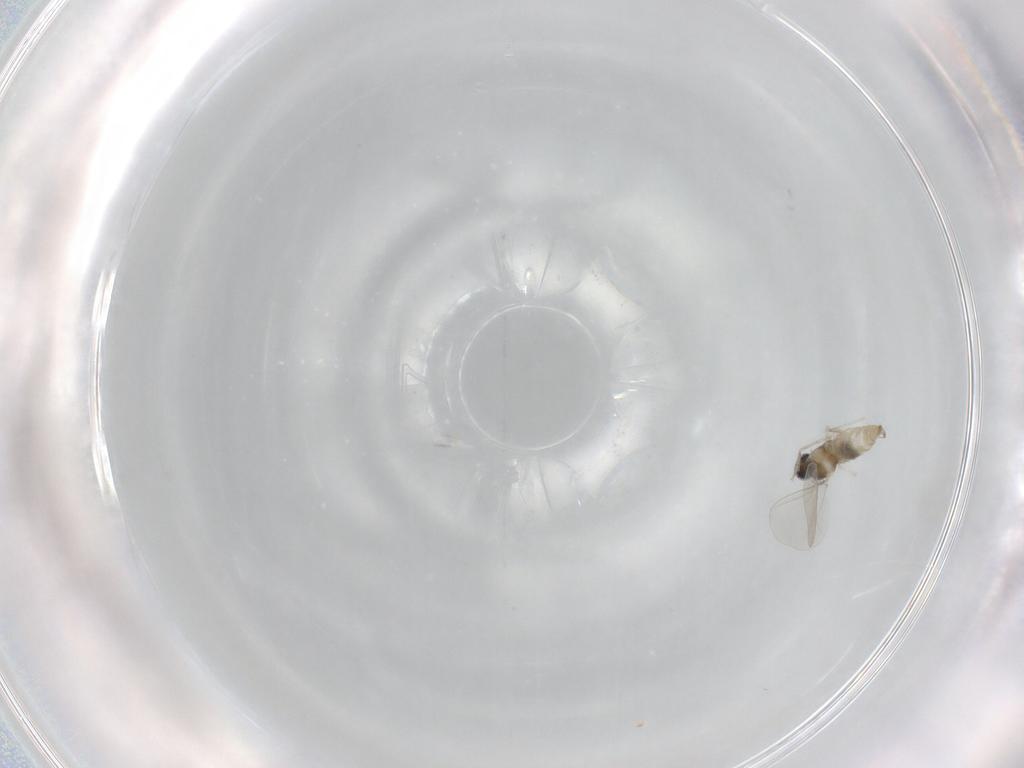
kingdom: Animalia
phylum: Arthropoda
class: Insecta
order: Diptera
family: Cecidomyiidae
